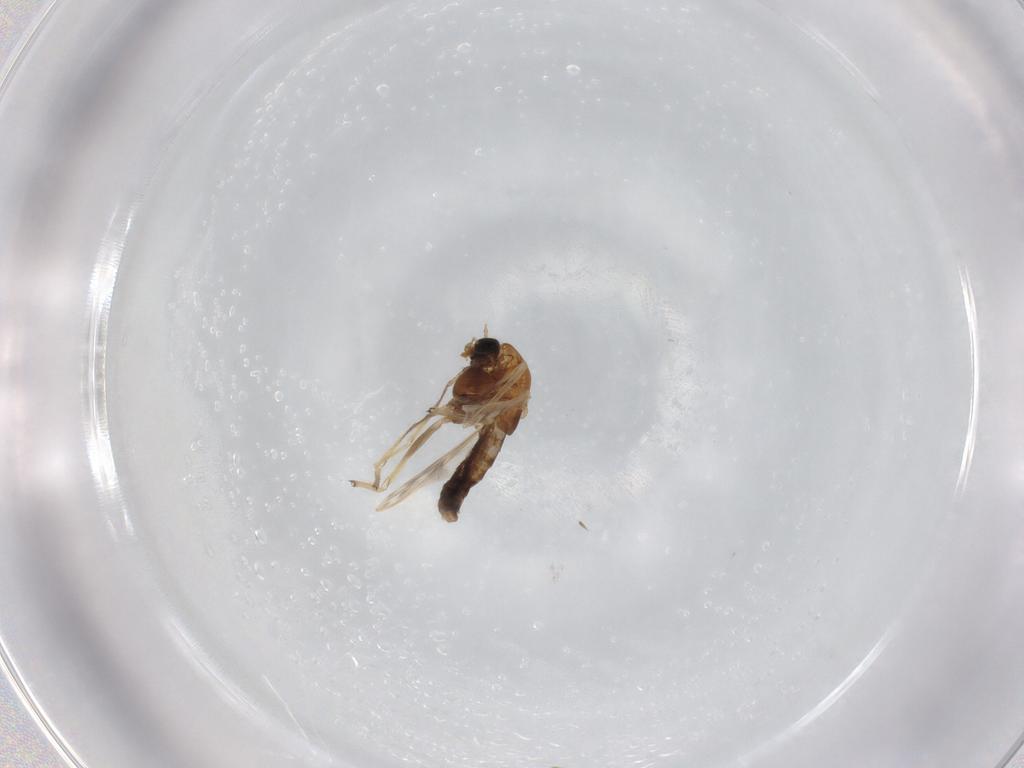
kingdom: Animalia
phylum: Arthropoda
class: Insecta
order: Diptera
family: Chironomidae
